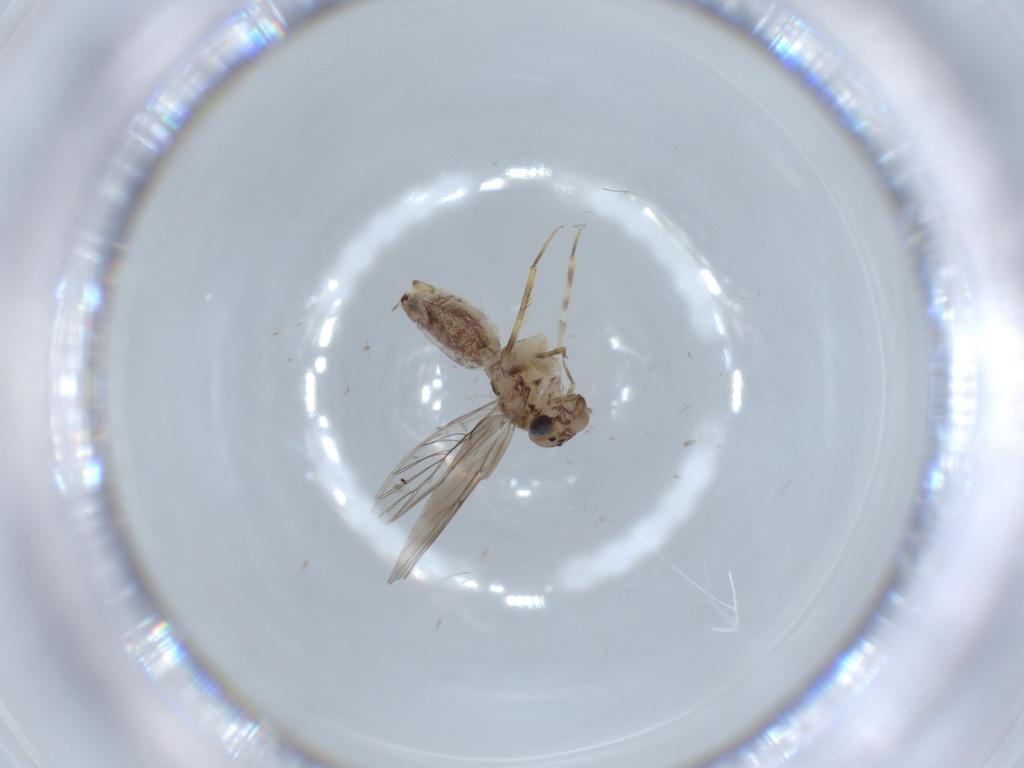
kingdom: Animalia
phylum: Arthropoda
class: Insecta
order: Psocodea
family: Lepidopsocidae
